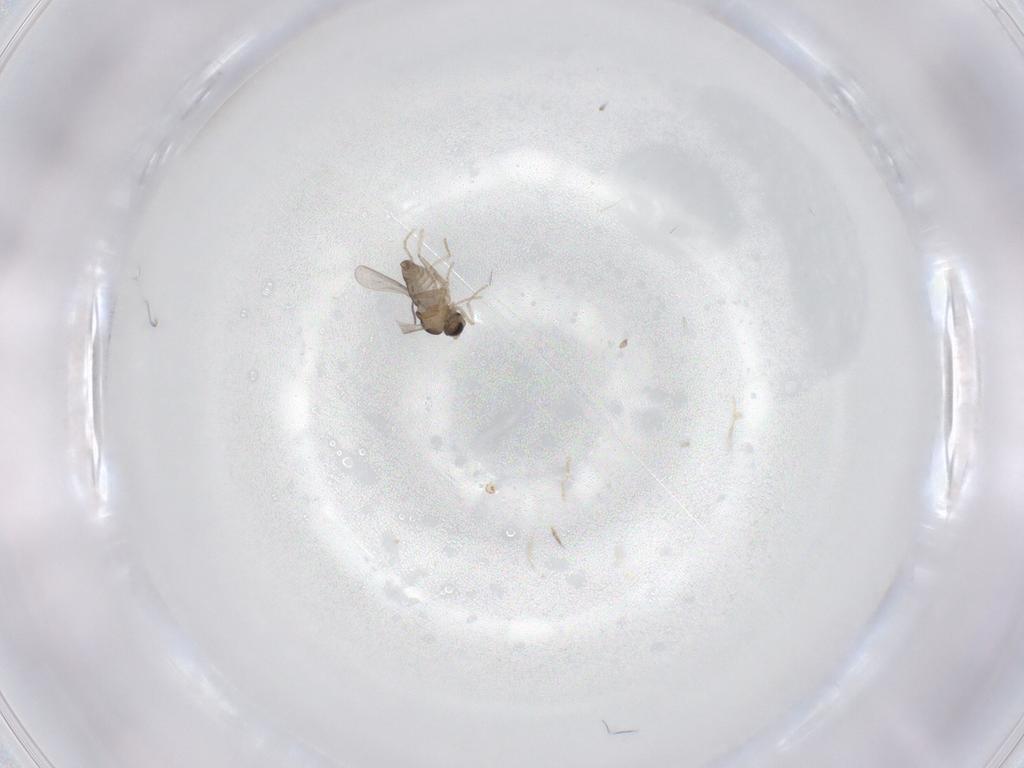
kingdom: Animalia
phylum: Arthropoda
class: Insecta
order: Diptera
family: Cecidomyiidae
